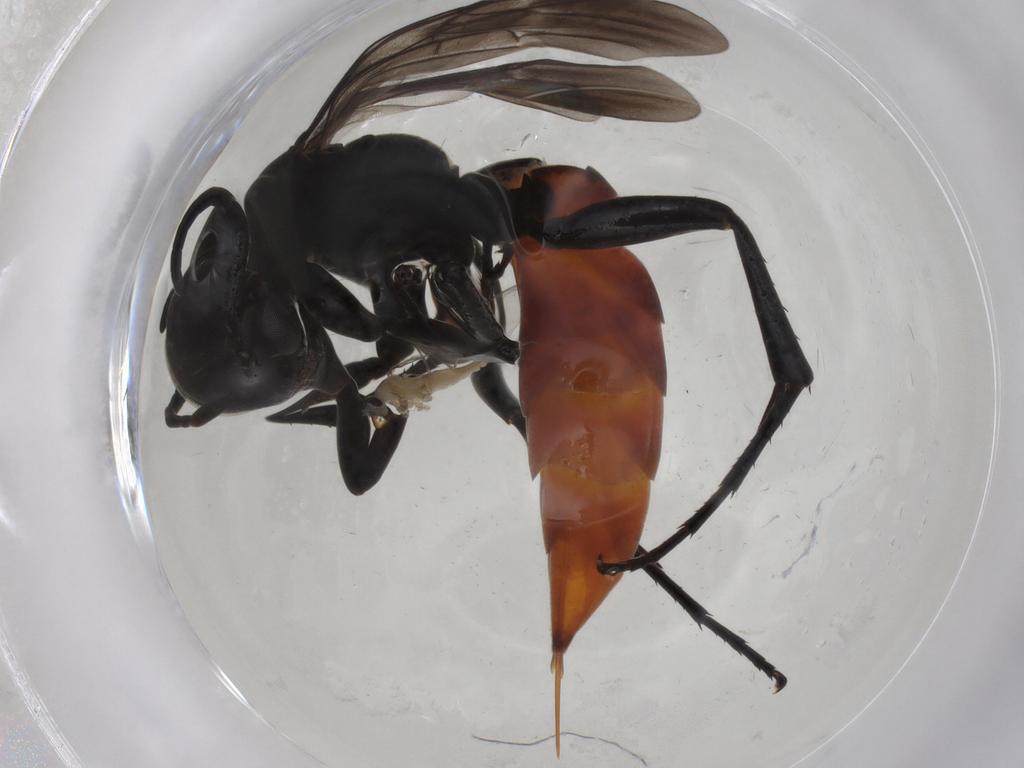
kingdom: Animalia
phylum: Arthropoda
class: Insecta
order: Hymenoptera
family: Pompilidae
